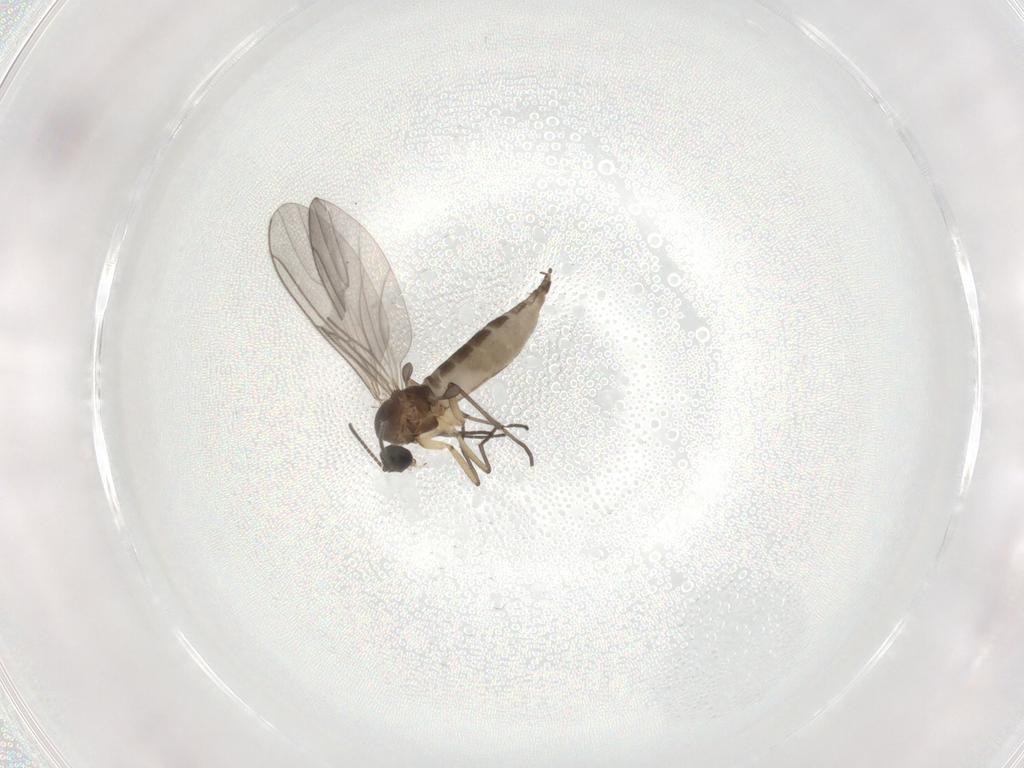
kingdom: Animalia
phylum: Arthropoda
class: Insecta
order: Diptera
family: Sciaridae
